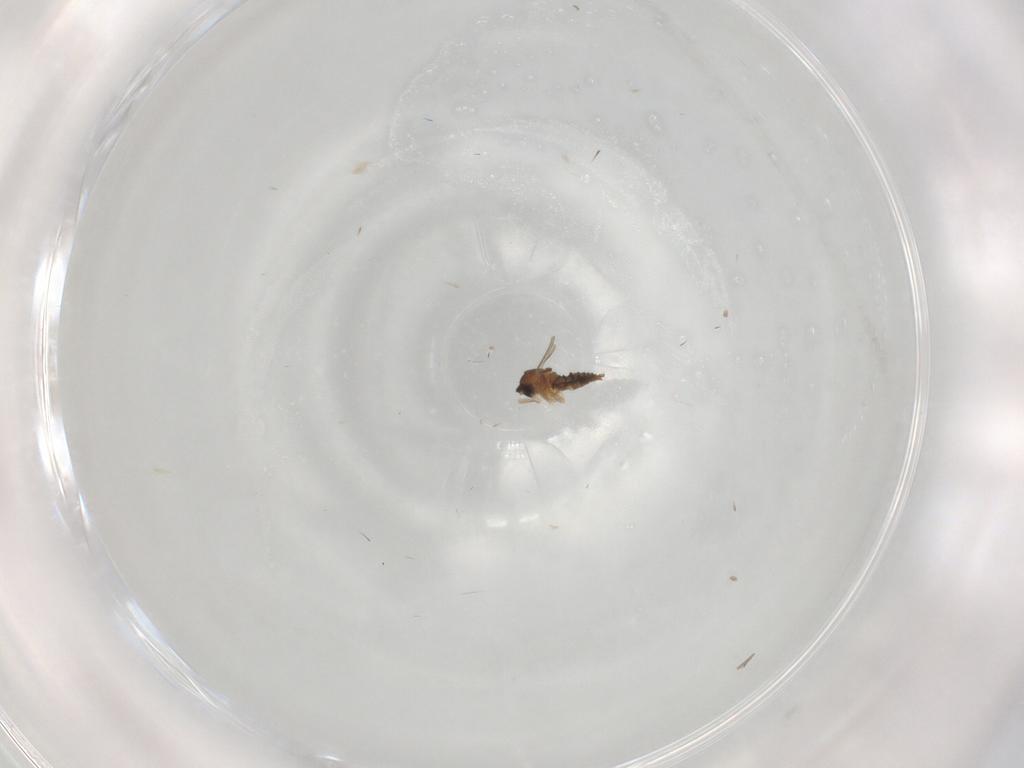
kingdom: Animalia
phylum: Arthropoda
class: Insecta
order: Diptera
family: Cecidomyiidae
